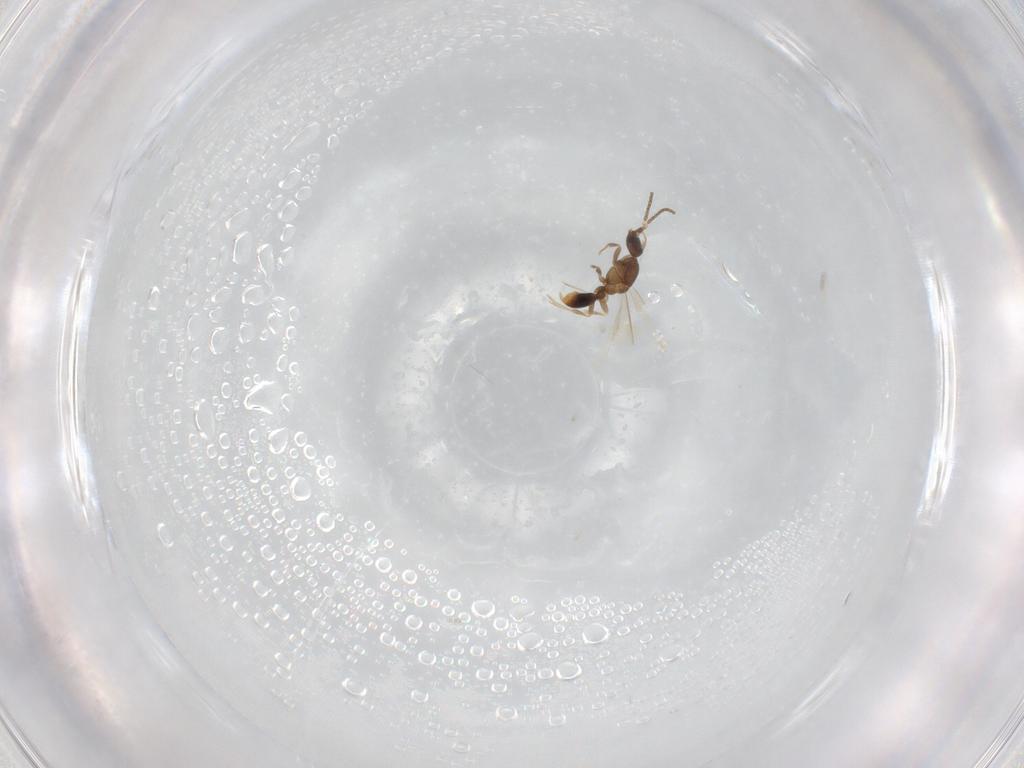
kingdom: Animalia
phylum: Arthropoda
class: Insecta
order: Hymenoptera
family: Formicidae
